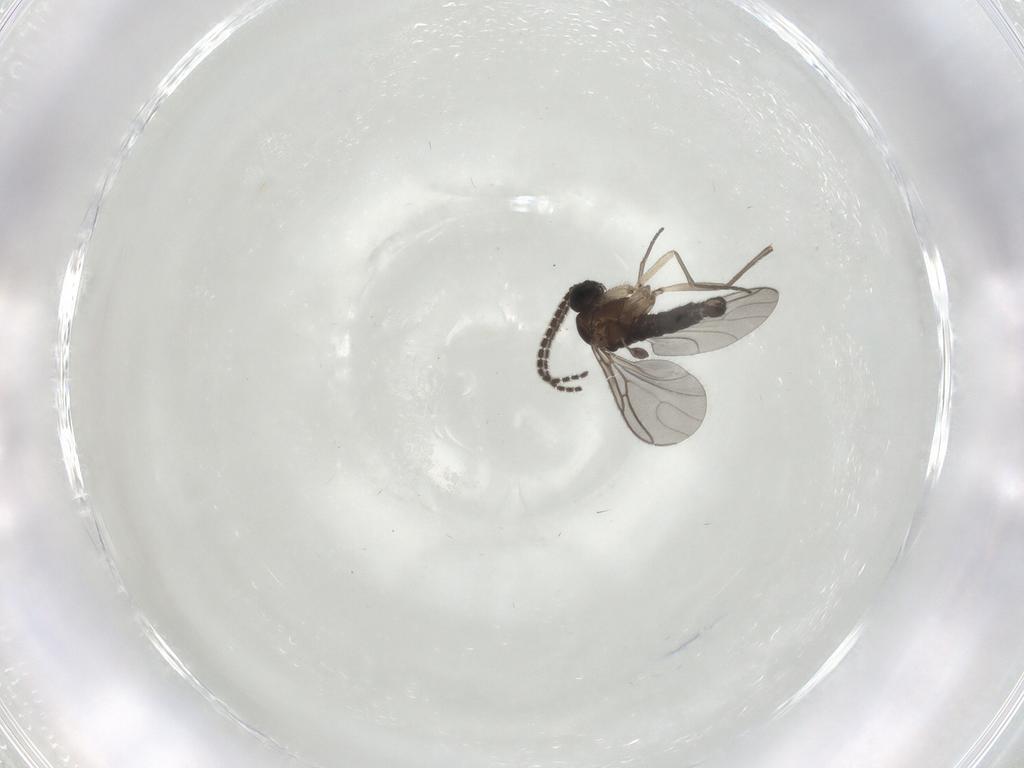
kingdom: Animalia
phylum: Arthropoda
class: Insecta
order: Diptera
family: Sciaridae
